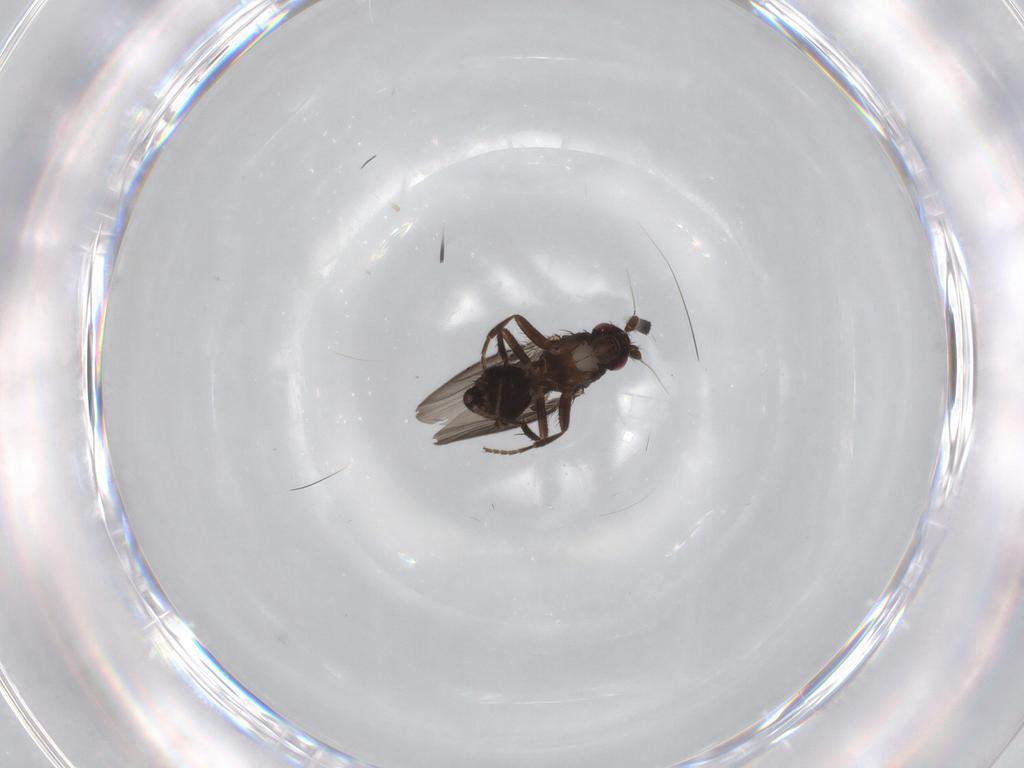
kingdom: Animalia
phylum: Arthropoda
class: Insecta
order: Diptera
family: Sphaeroceridae
